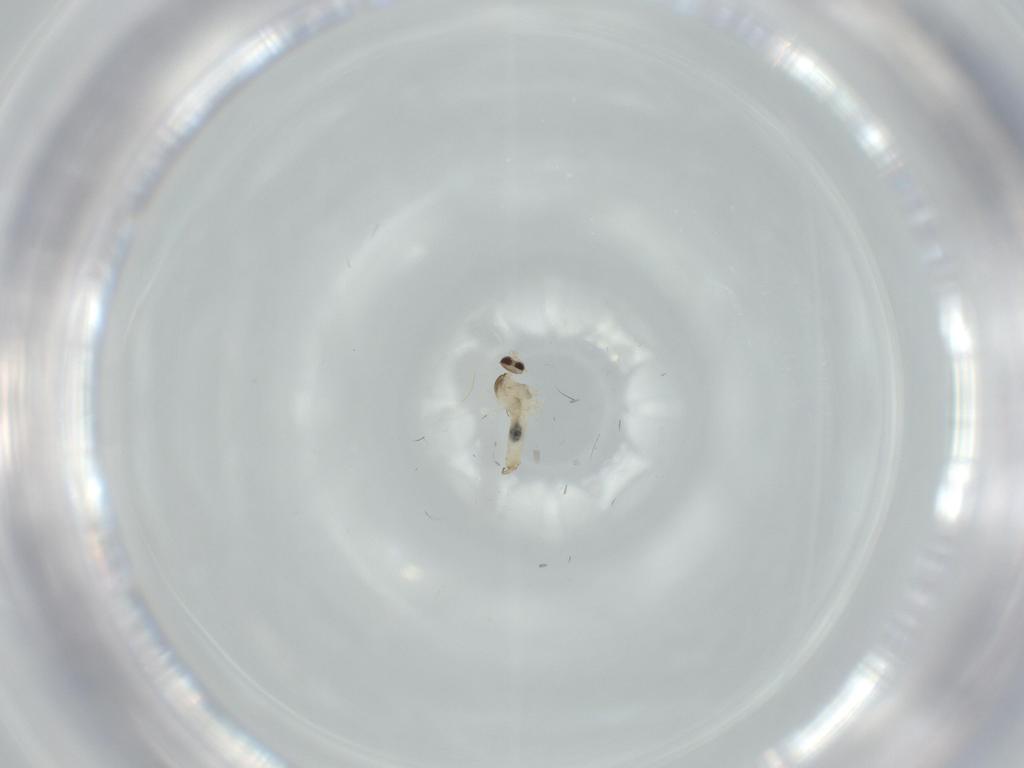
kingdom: Animalia
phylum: Arthropoda
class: Insecta
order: Diptera
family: Cecidomyiidae
